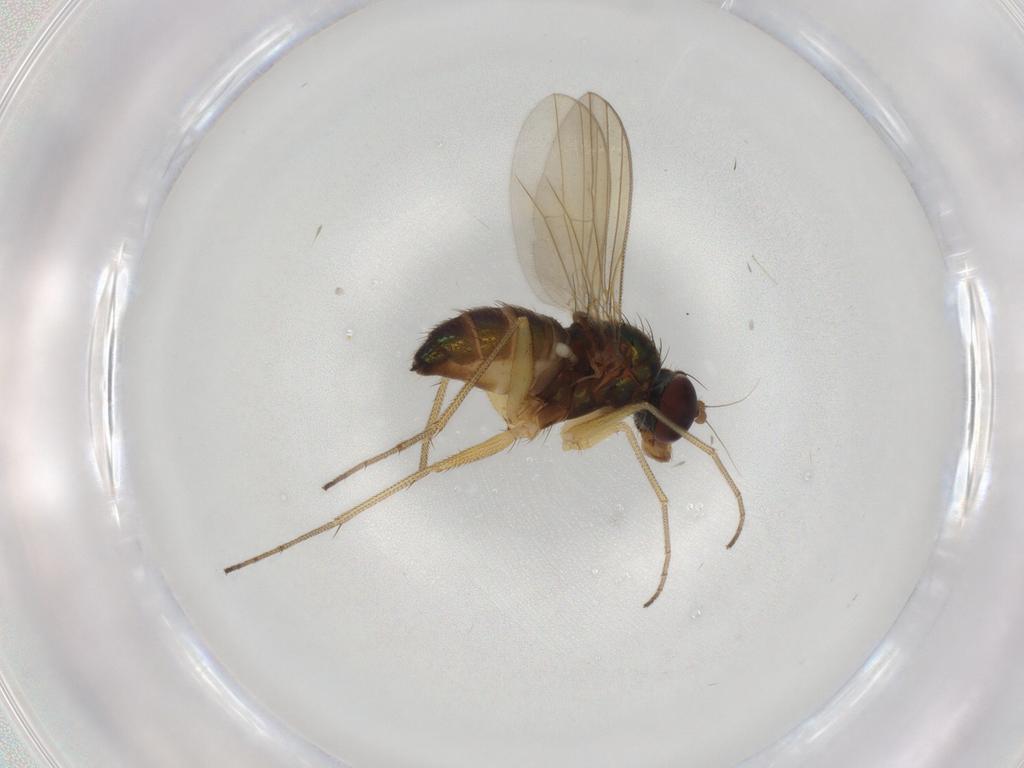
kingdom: Animalia
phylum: Arthropoda
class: Insecta
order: Diptera
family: Dolichopodidae
